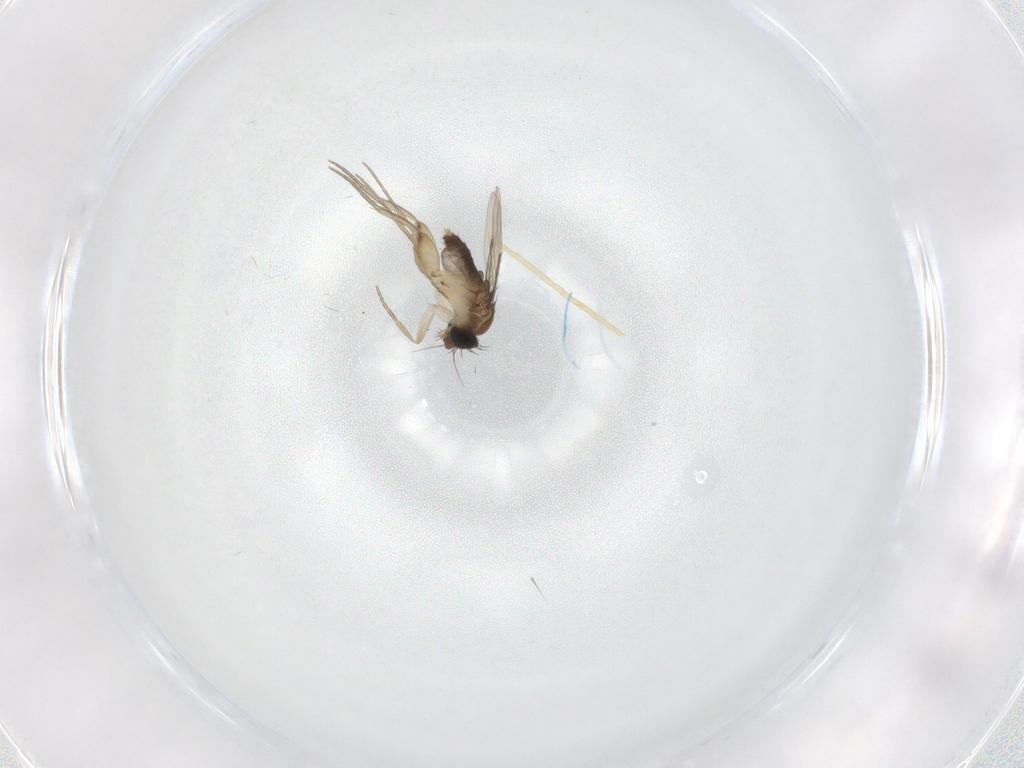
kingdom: Animalia
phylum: Arthropoda
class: Insecta
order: Diptera
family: Phoridae
